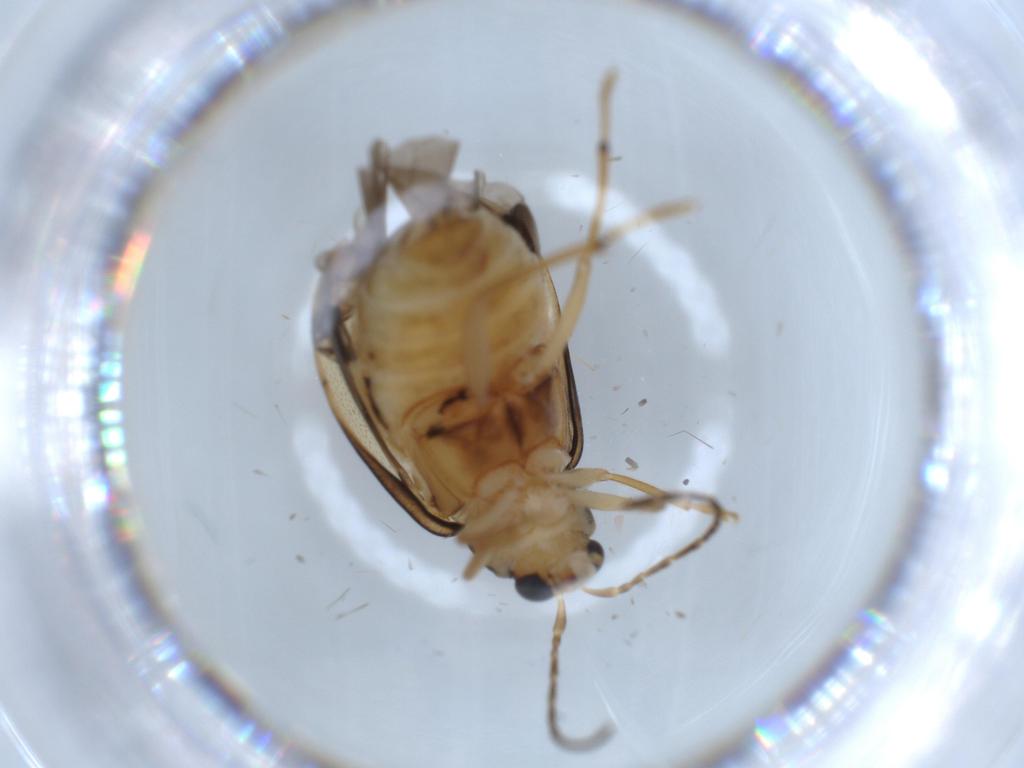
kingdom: Animalia
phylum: Arthropoda
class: Insecta
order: Coleoptera
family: Chrysomelidae
